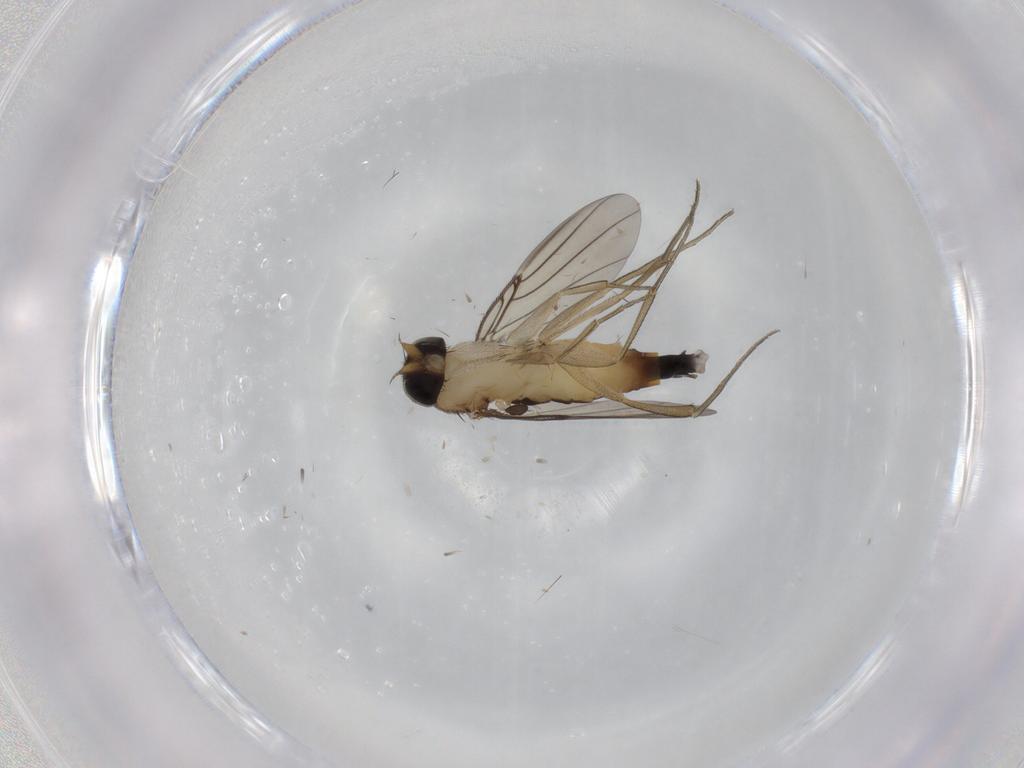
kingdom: Animalia
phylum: Arthropoda
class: Insecta
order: Diptera
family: Phoridae
